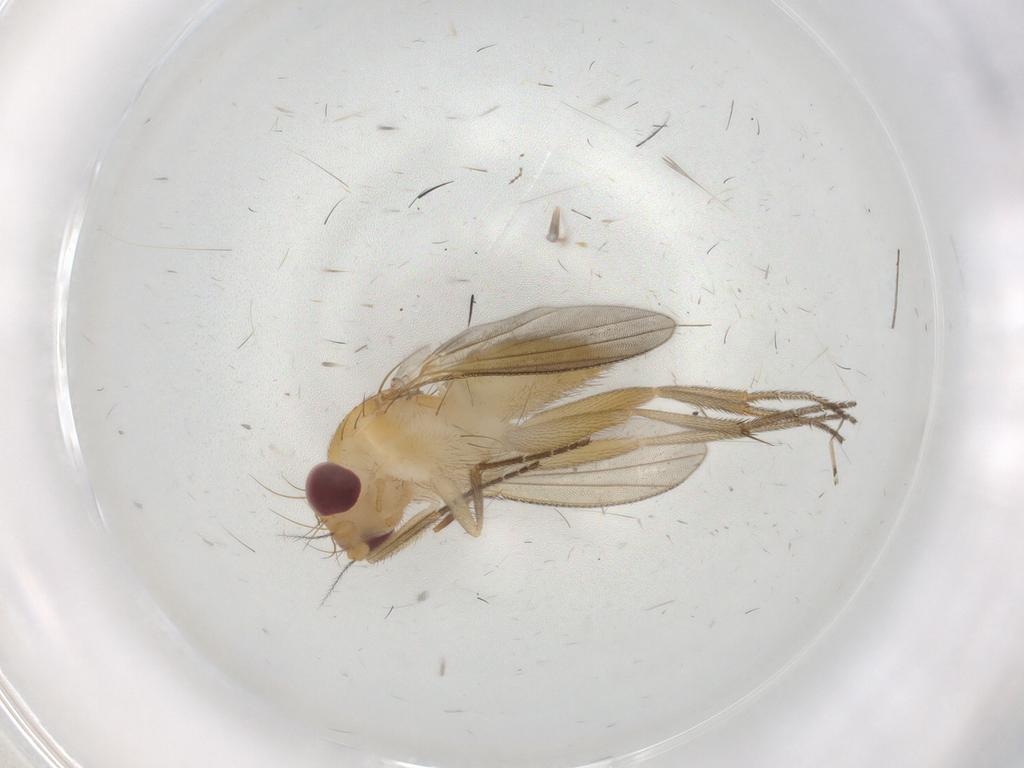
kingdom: Animalia
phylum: Arthropoda
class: Insecta
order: Diptera
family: Clusiidae
